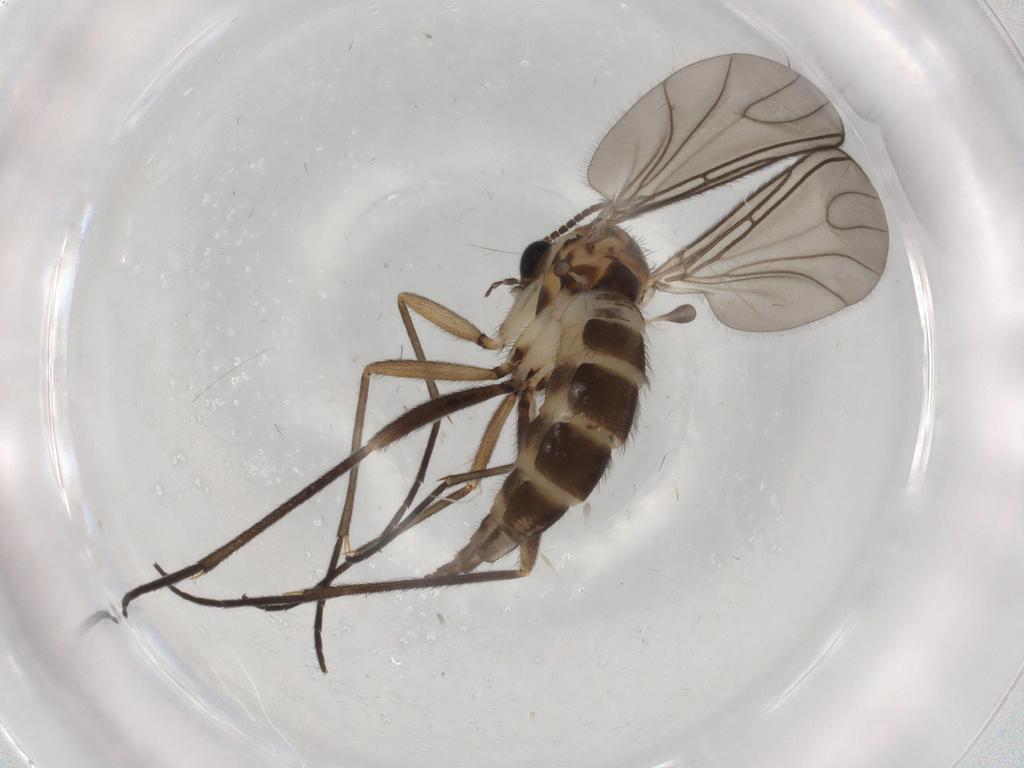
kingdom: Animalia
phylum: Arthropoda
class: Insecta
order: Diptera
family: Sciaridae
